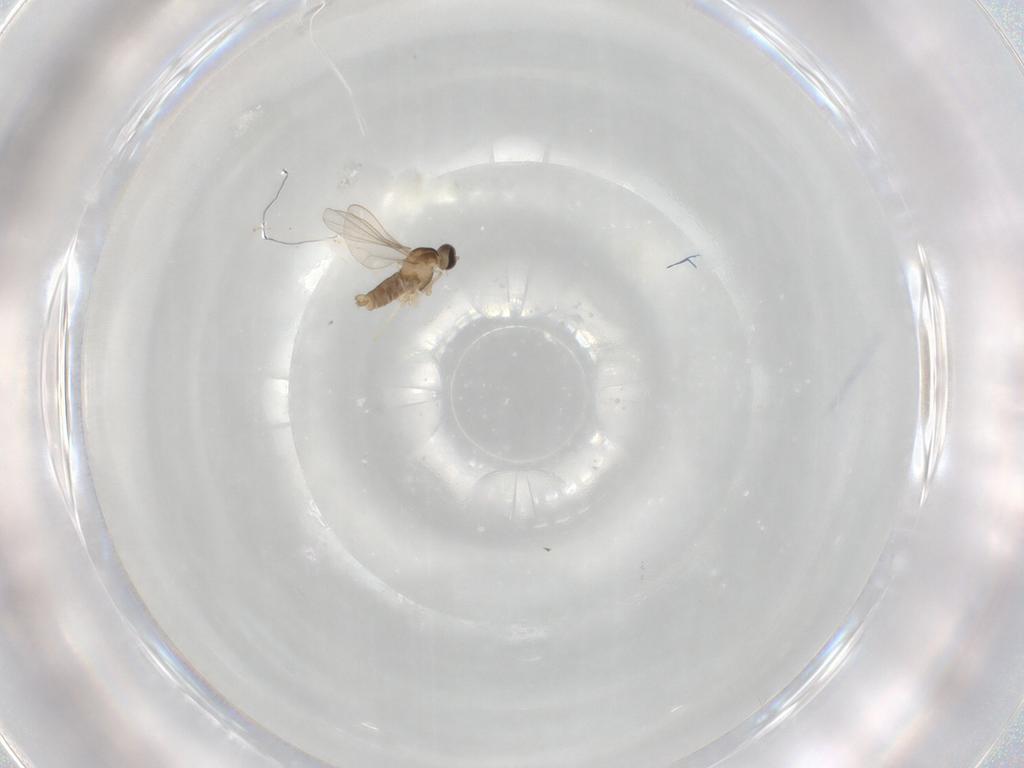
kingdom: Animalia
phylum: Arthropoda
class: Insecta
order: Diptera
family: Cecidomyiidae
